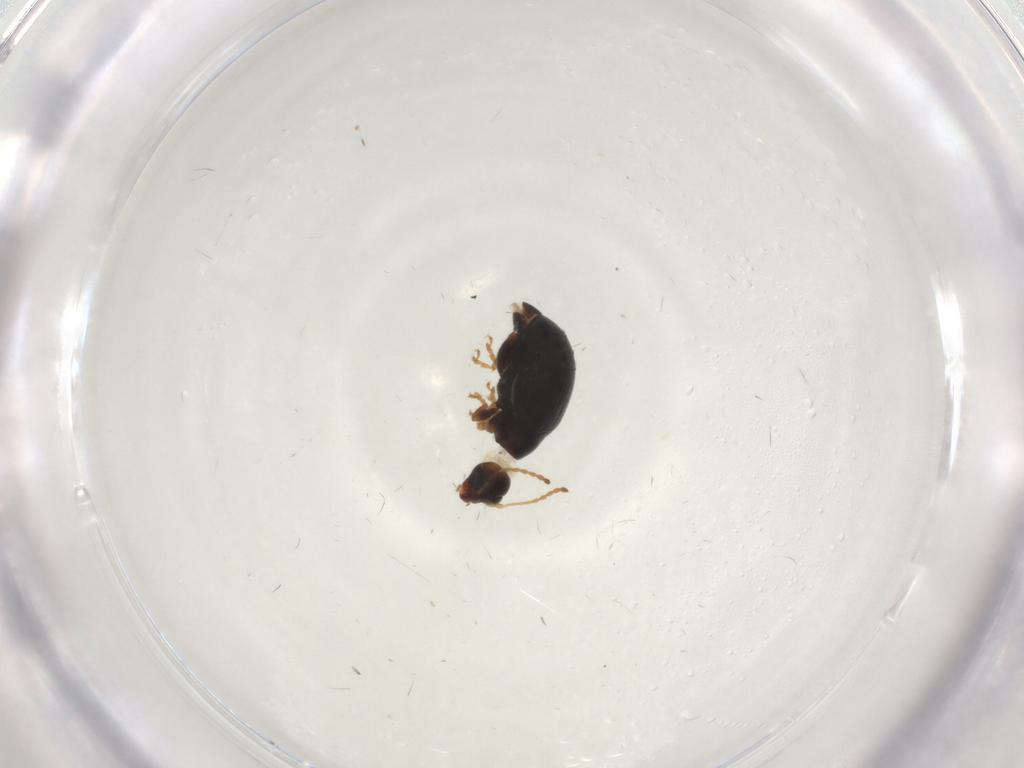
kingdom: Animalia
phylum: Arthropoda
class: Insecta
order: Coleoptera
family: Chrysomelidae
